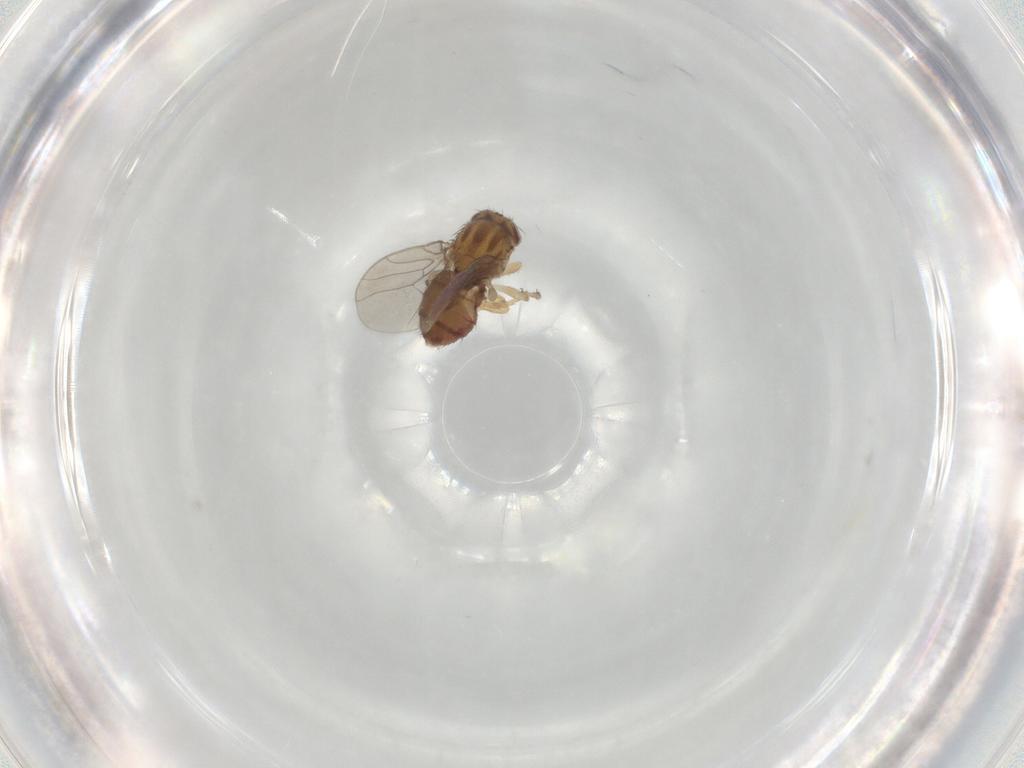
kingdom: Animalia
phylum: Arthropoda
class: Insecta
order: Diptera
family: Chloropidae
